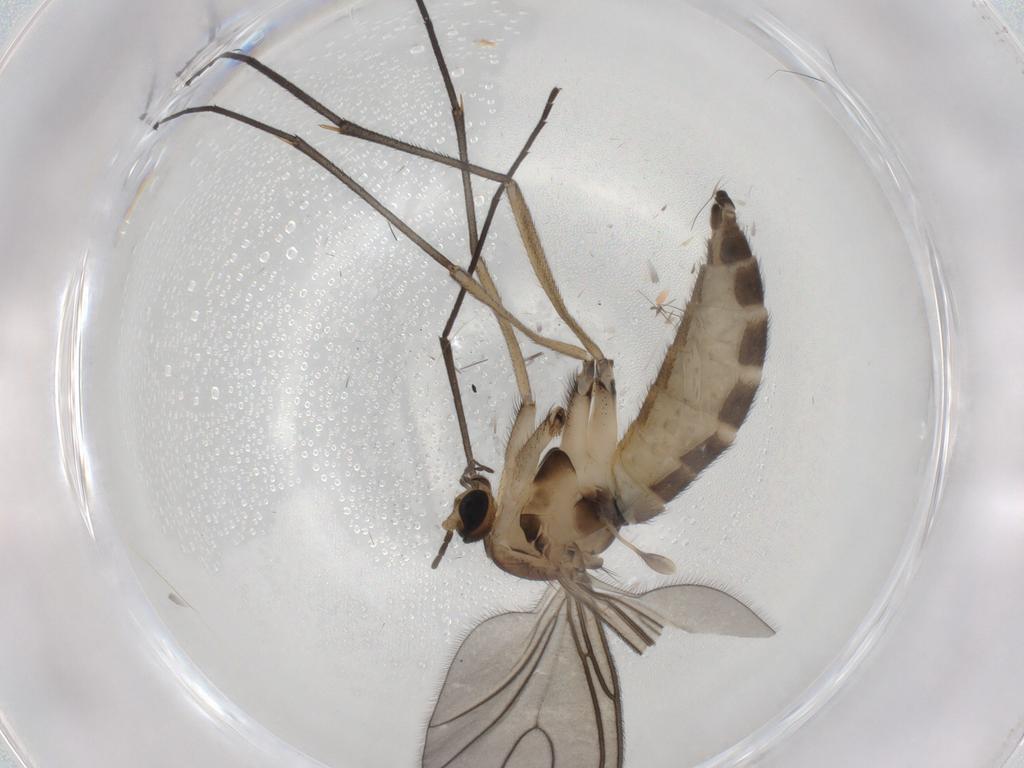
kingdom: Animalia
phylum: Arthropoda
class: Insecta
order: Diptera
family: Sciaridae
